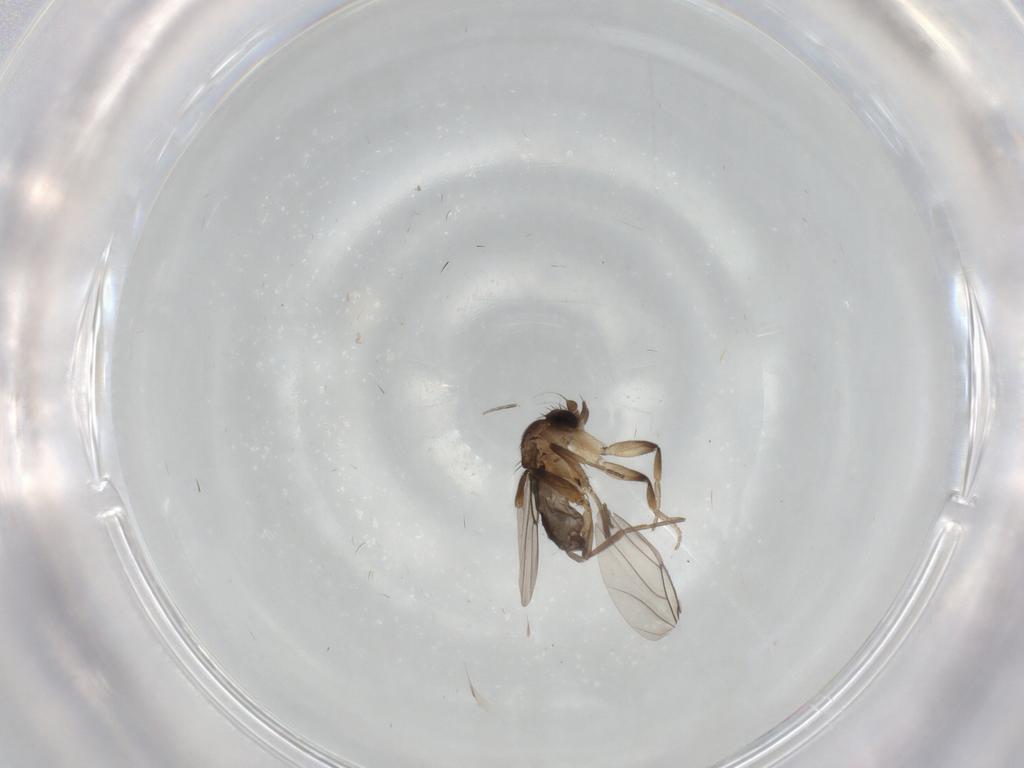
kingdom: Animalia
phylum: Arthropoda
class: Insecta
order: Diptera
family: Phoridae
